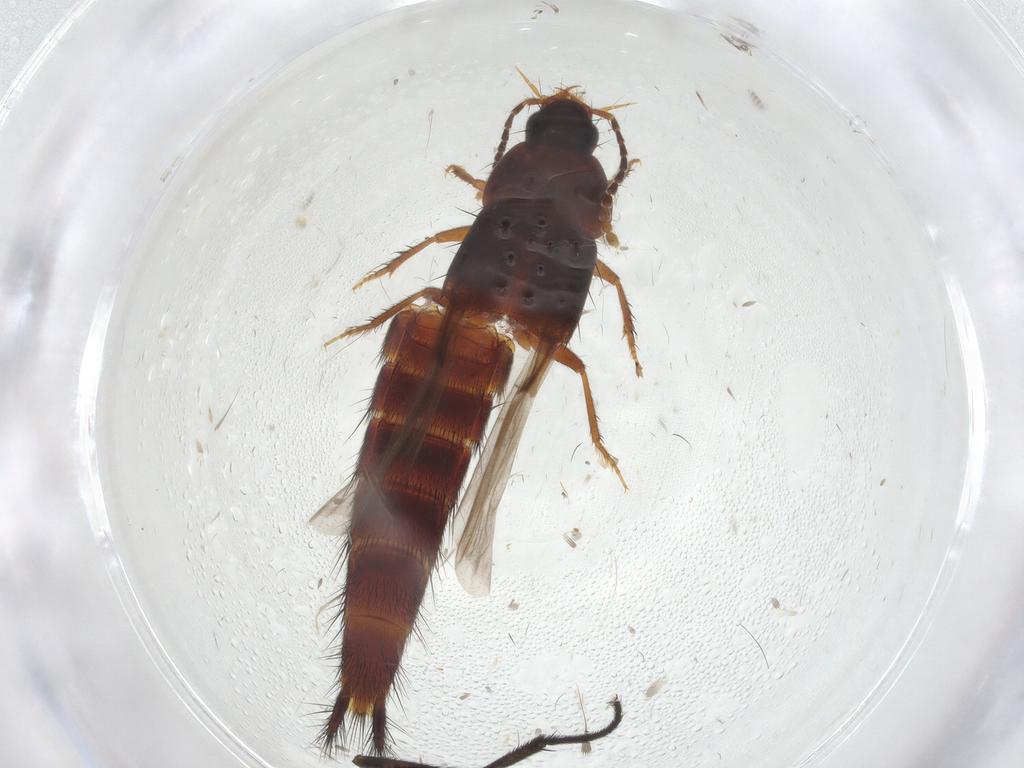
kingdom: Animalia
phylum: Arthropoda
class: Insecta
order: Coleoptera
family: Staphylinidae
